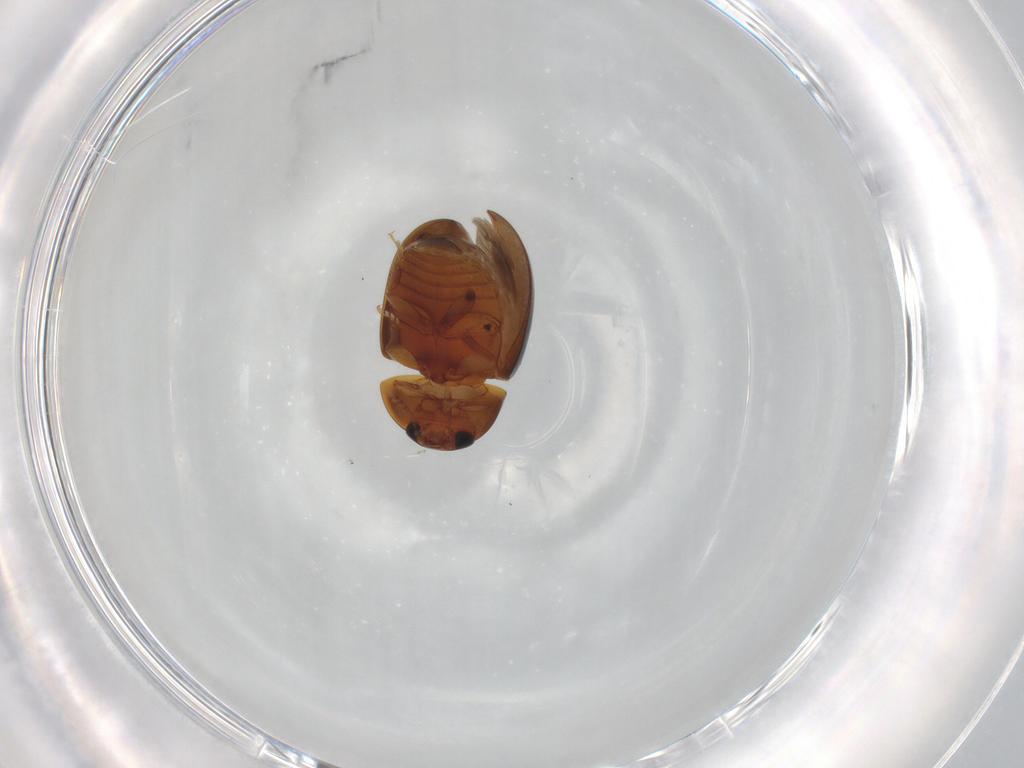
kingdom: Animalia
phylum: Arthropoda
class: Insecta
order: Coleoptera
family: Phalacridae
